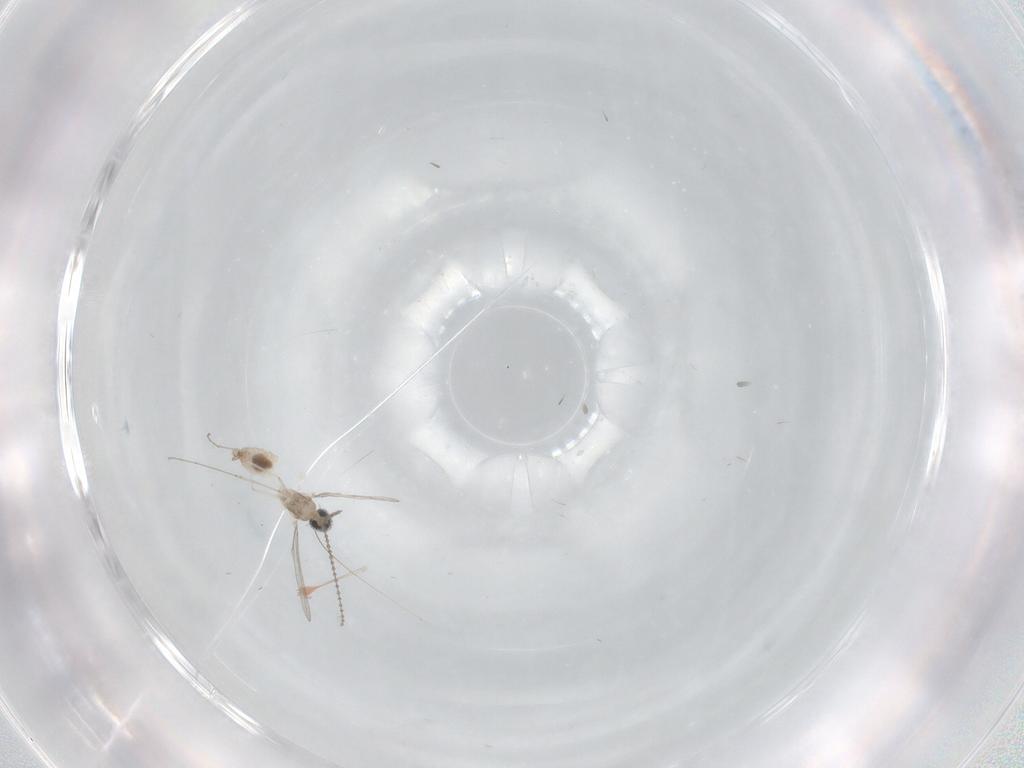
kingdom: Animalia
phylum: Arthropoda
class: Insecta
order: Diptera
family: Cecidomyiidae
